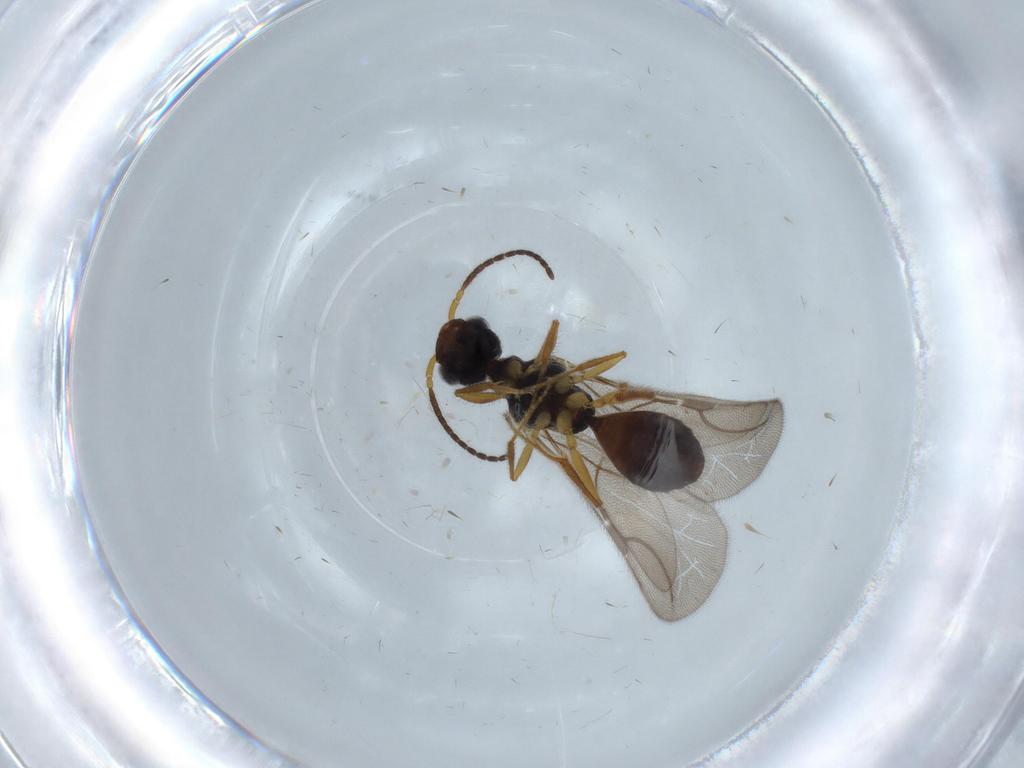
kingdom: Animalia
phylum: Arthropoda
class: Insecta
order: Hymenoptera
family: Bethylidae
